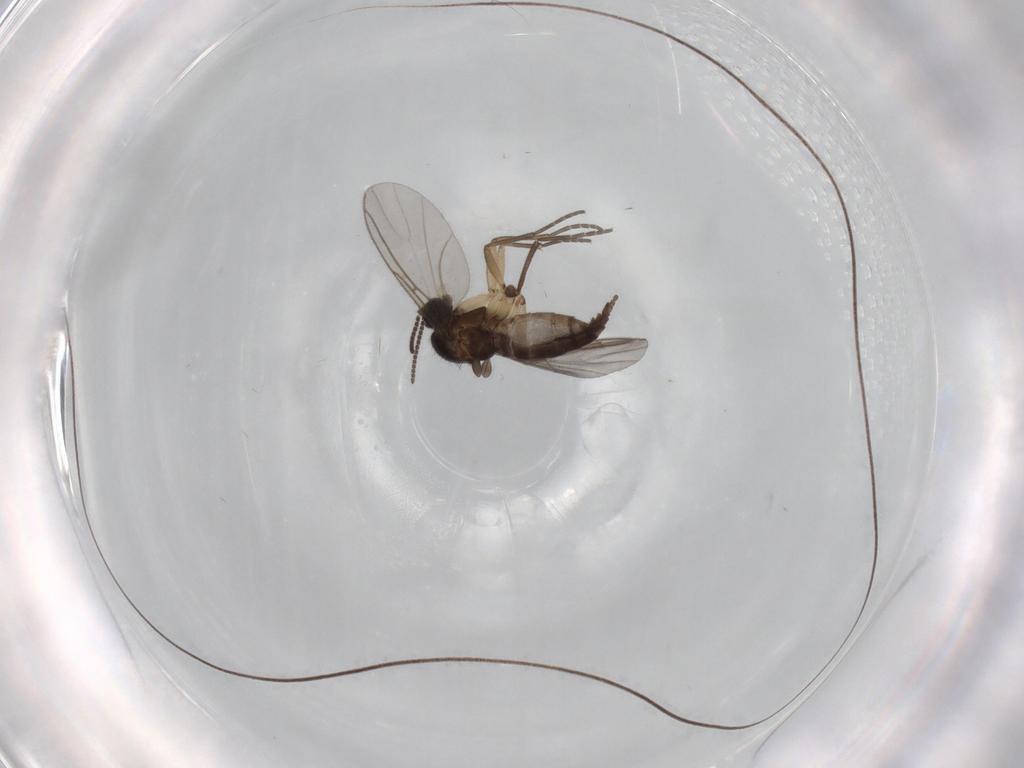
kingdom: Animalia
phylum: Arthropoda
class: Insecta
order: Diptera
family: Sciaridae
